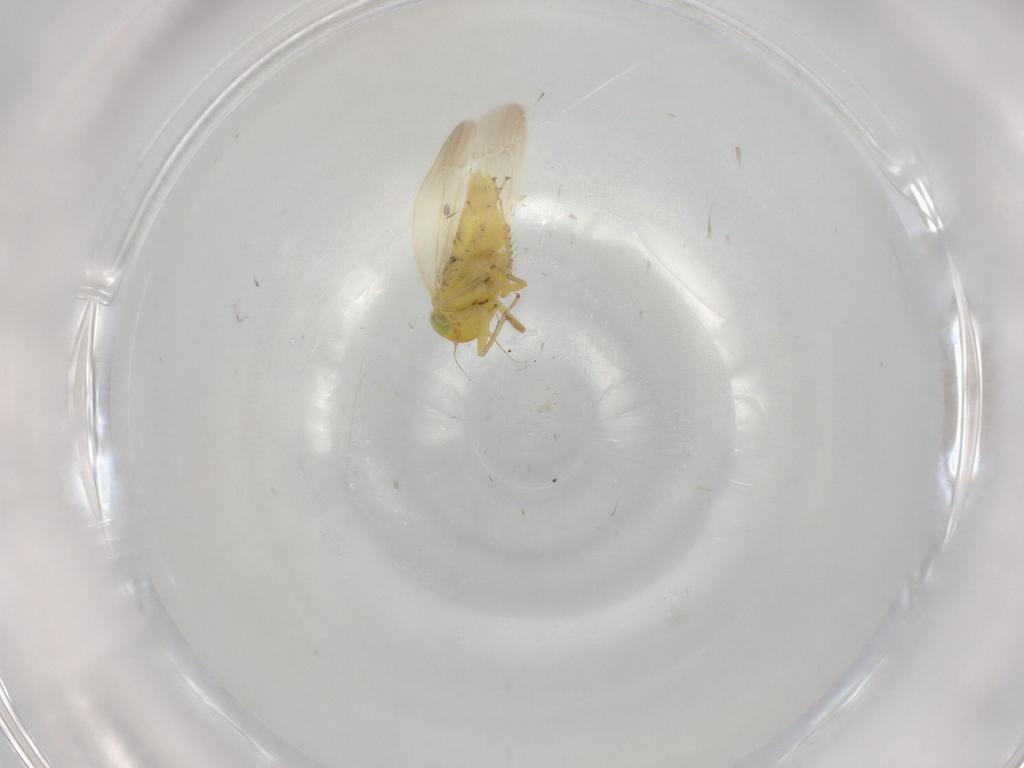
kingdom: Animalia
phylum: Arthropoda
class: Insecta
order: Hemiptera
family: Cicadellidae
